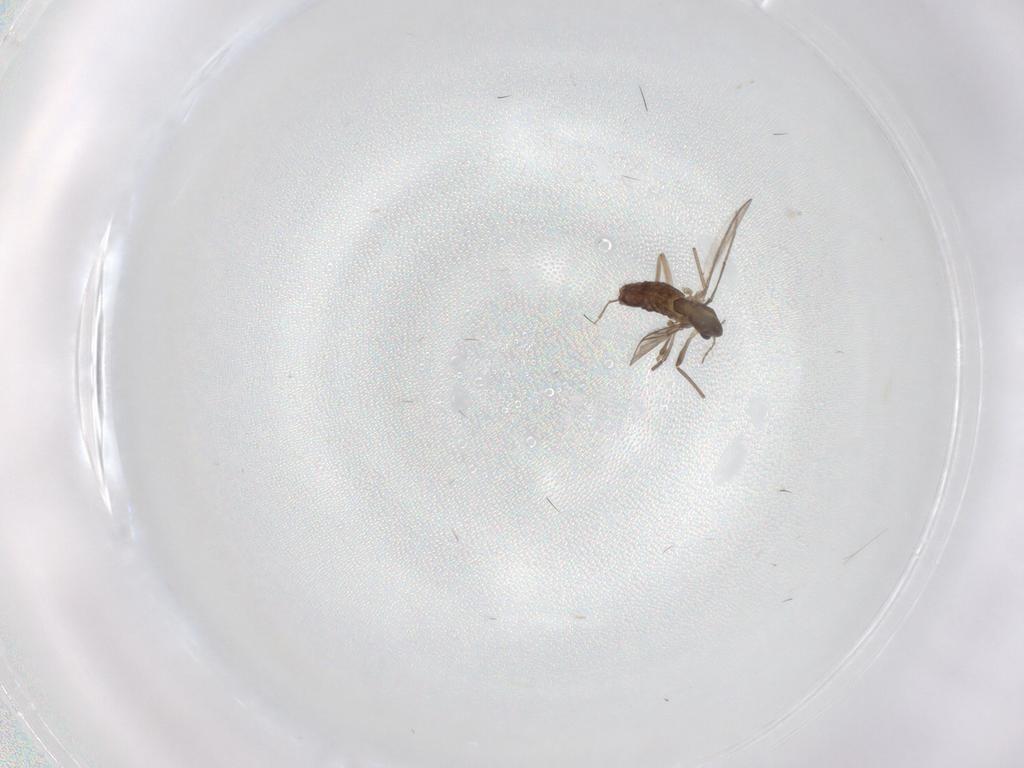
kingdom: Animalia
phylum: Arthropoda
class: Insecta
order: Diptera
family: Chironomidae
